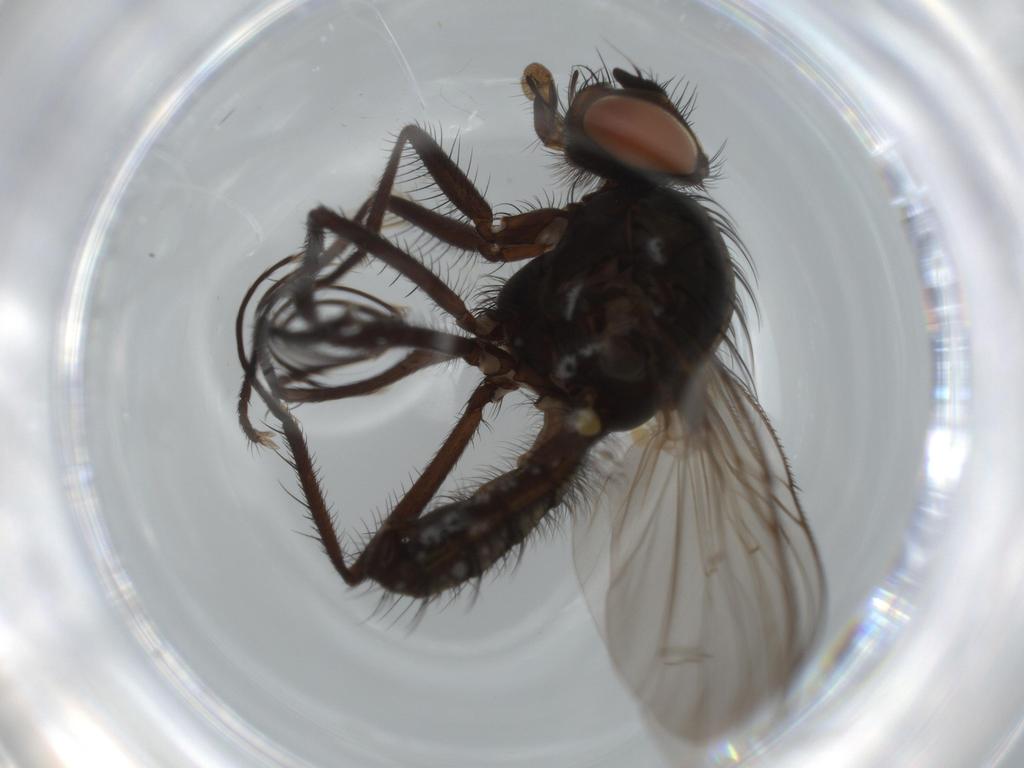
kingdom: Animalia
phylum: Arthropoda
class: Insecta
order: Diptera
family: Anthomyiidae
